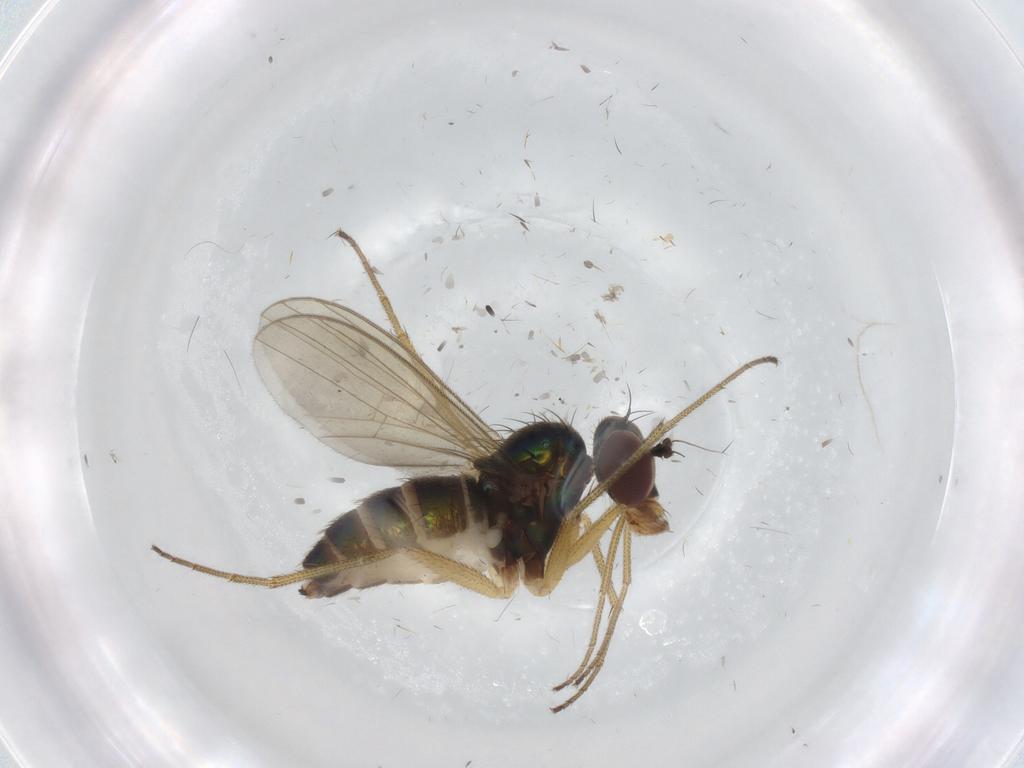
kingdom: Animalia
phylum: Arthropoda
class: Insecta
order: Diptera
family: Dolichopodidae
